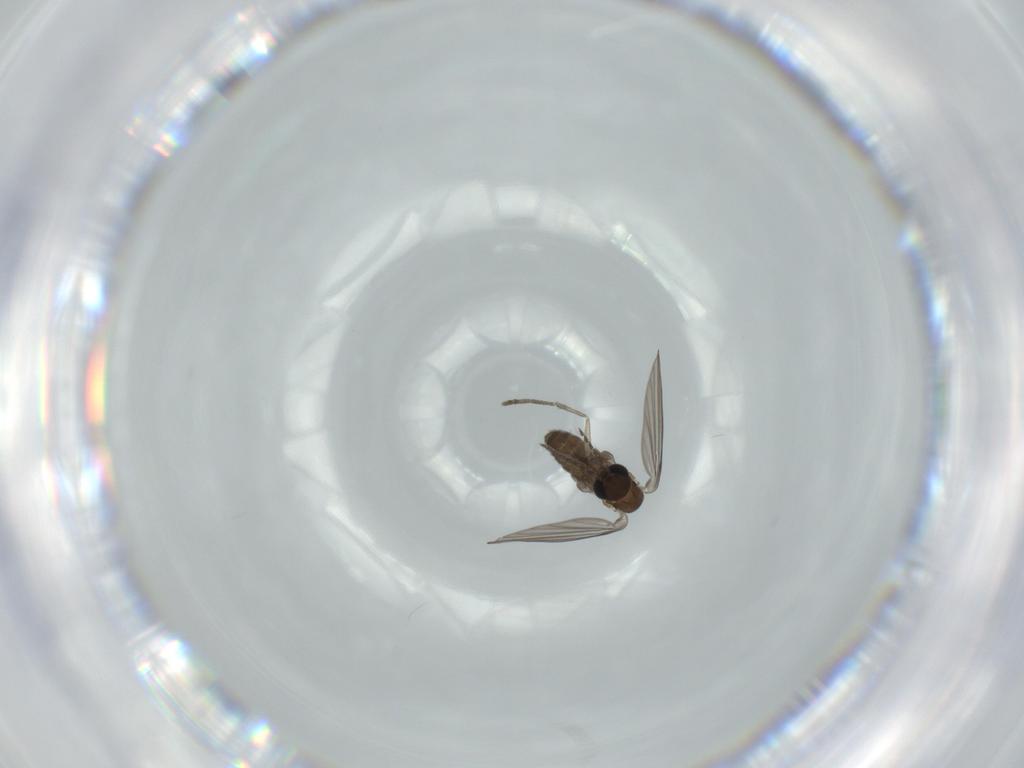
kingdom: Animalia
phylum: Arthropoda
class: Insecta
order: Diptera
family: Psychodidae
